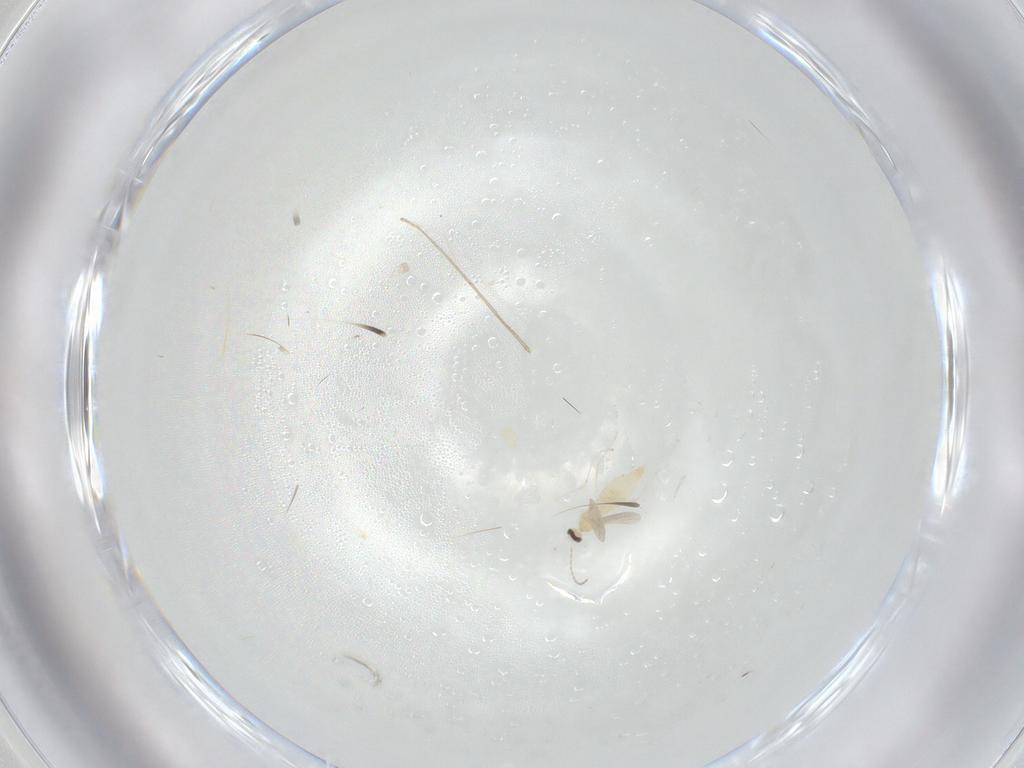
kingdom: Animalia
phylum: Arthropoda
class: Insecta
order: Diptera
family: Cecidomyiidae
